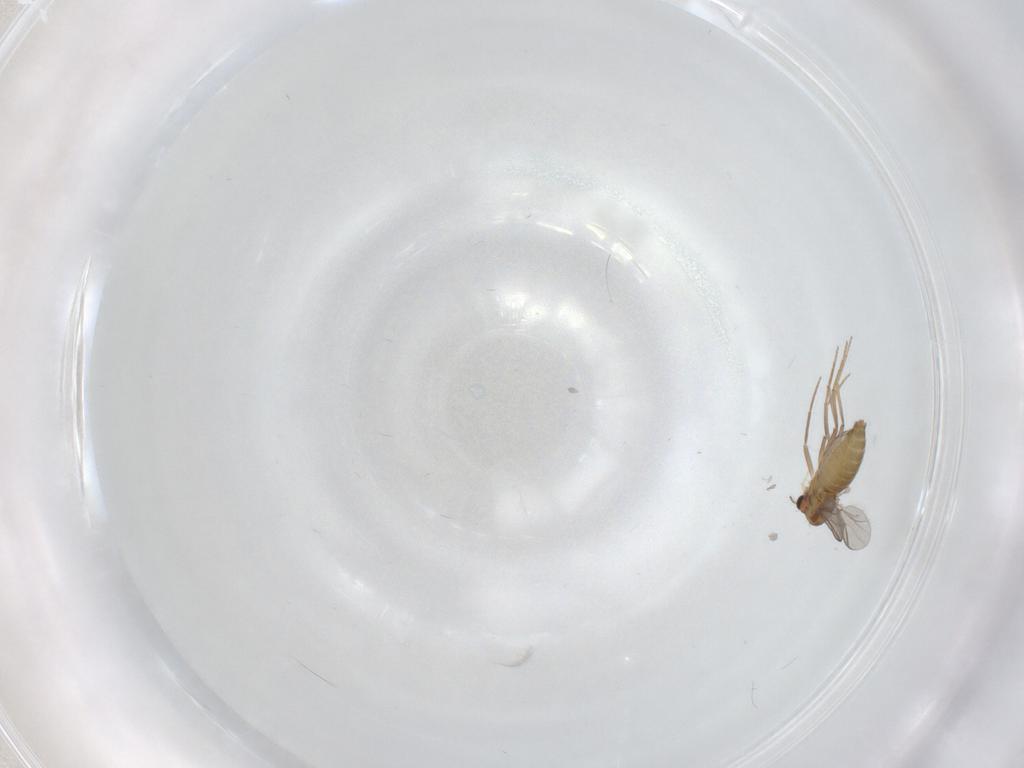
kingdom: Animalia
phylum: Arthropoda
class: Insecta
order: Diptera
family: Ceratopogonidae
